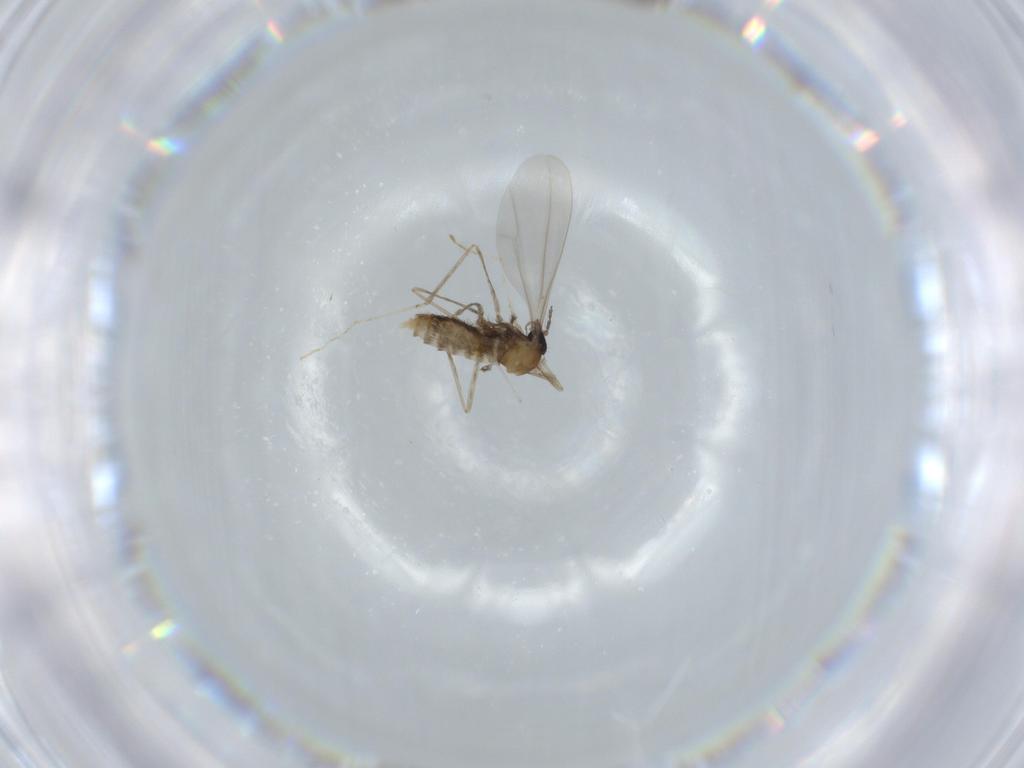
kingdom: Animalia
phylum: Arthropoda
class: Insecta
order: Diptera
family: Cecidomyiidae
